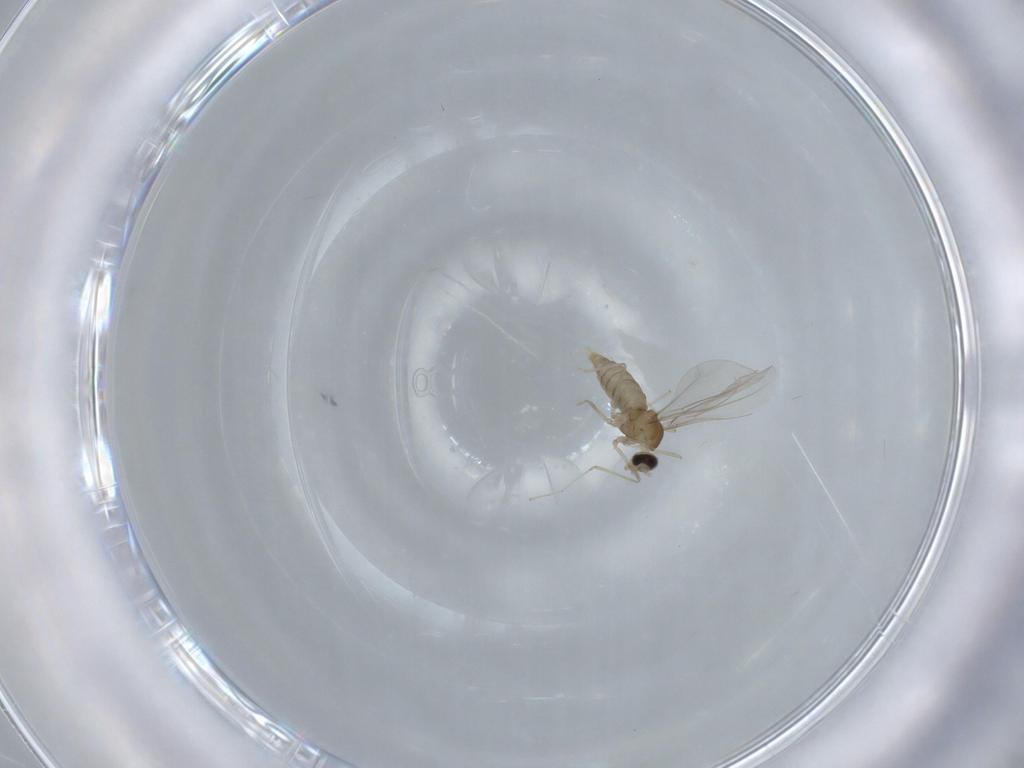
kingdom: Animalia
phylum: Arthropoda
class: Insecta
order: Diptera
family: Cecidomyiidae
